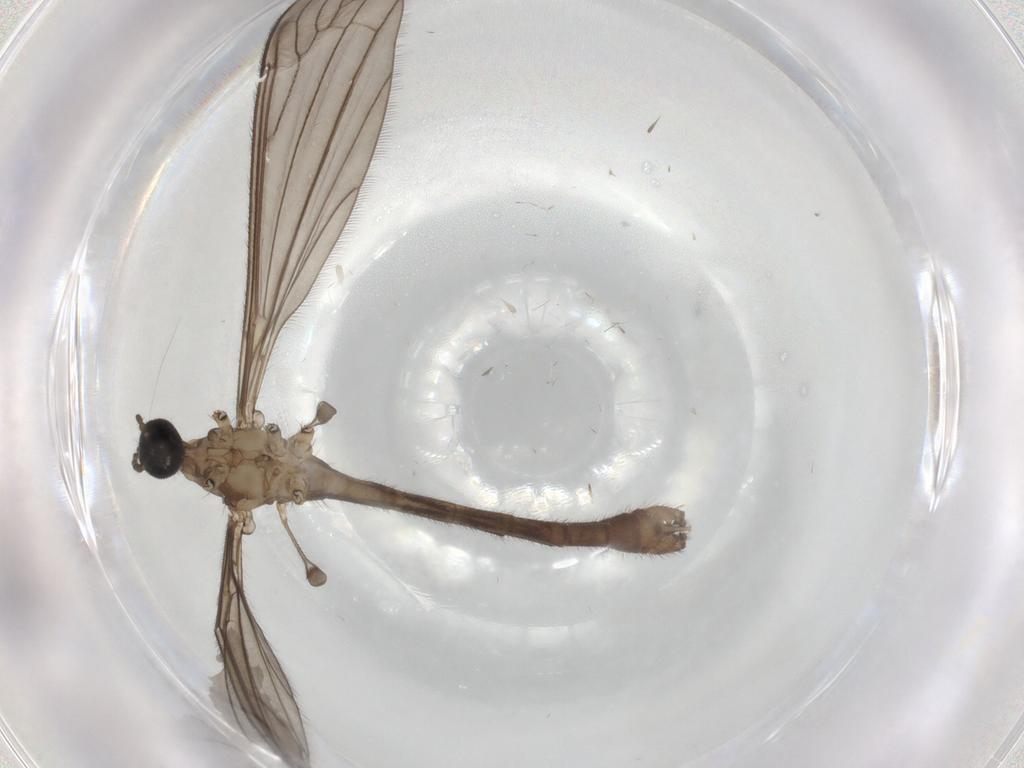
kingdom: Animalia
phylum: Arthropoda
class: Insecta
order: Diptera
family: Limoniidae
